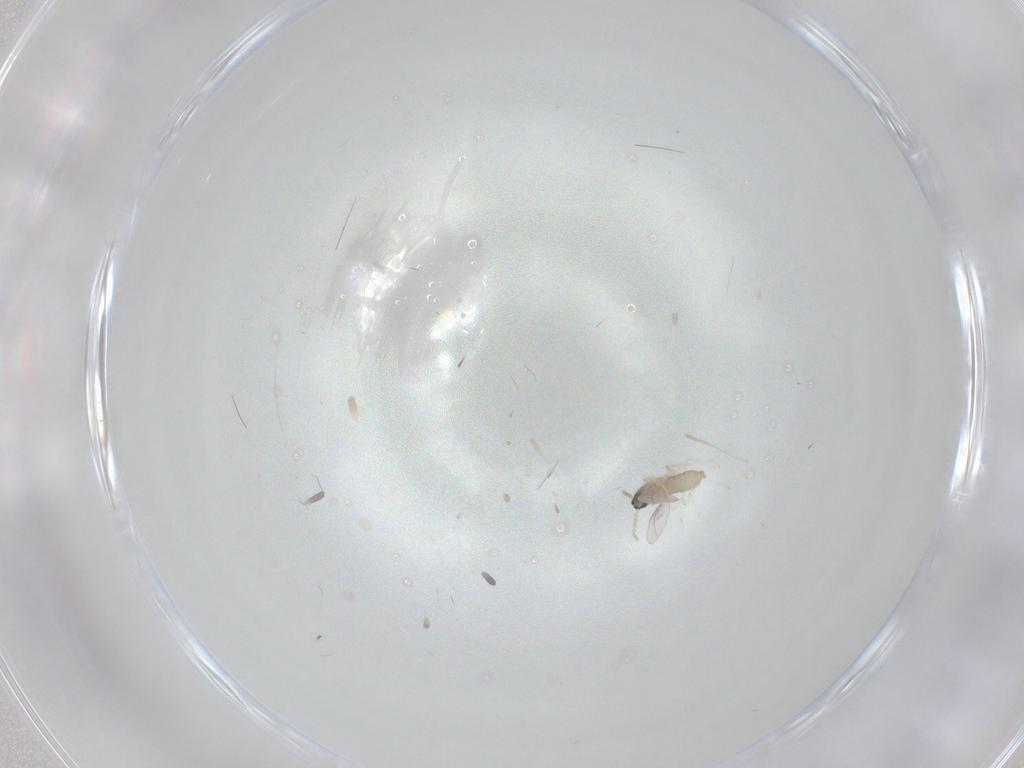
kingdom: Animalia
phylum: Arthropoda
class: Insecta
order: Diptera
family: Cecidomyiidae
